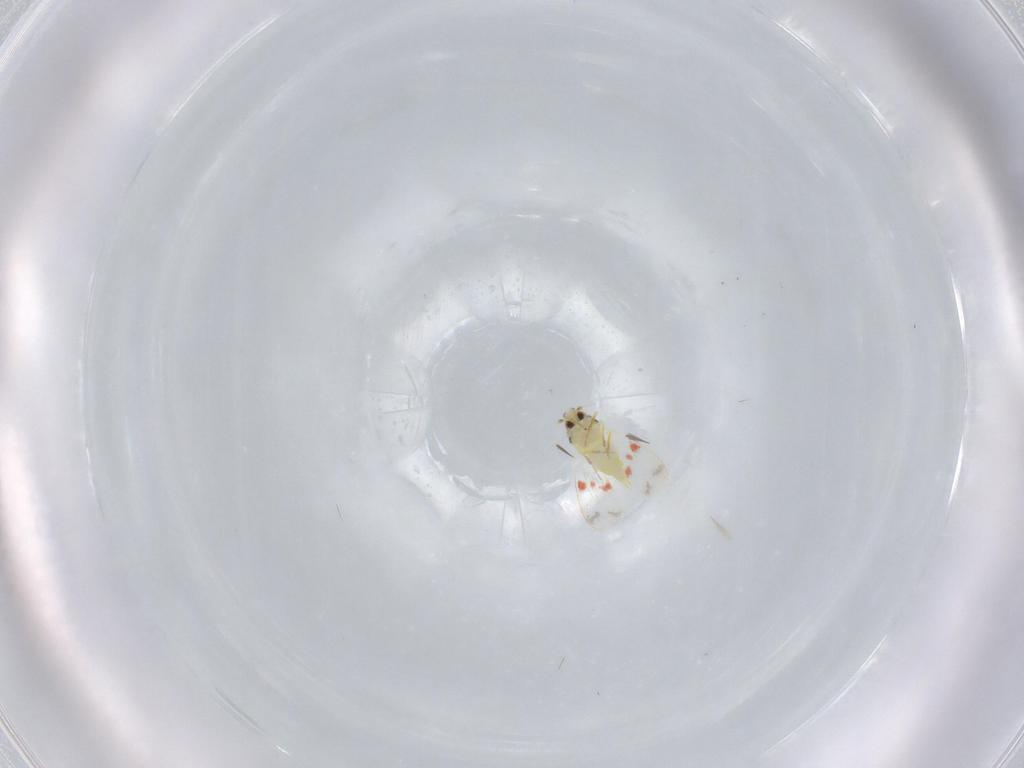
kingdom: Animalia
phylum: Arthropoda
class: Insecta
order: Hemiptera
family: Aleyrodidae
